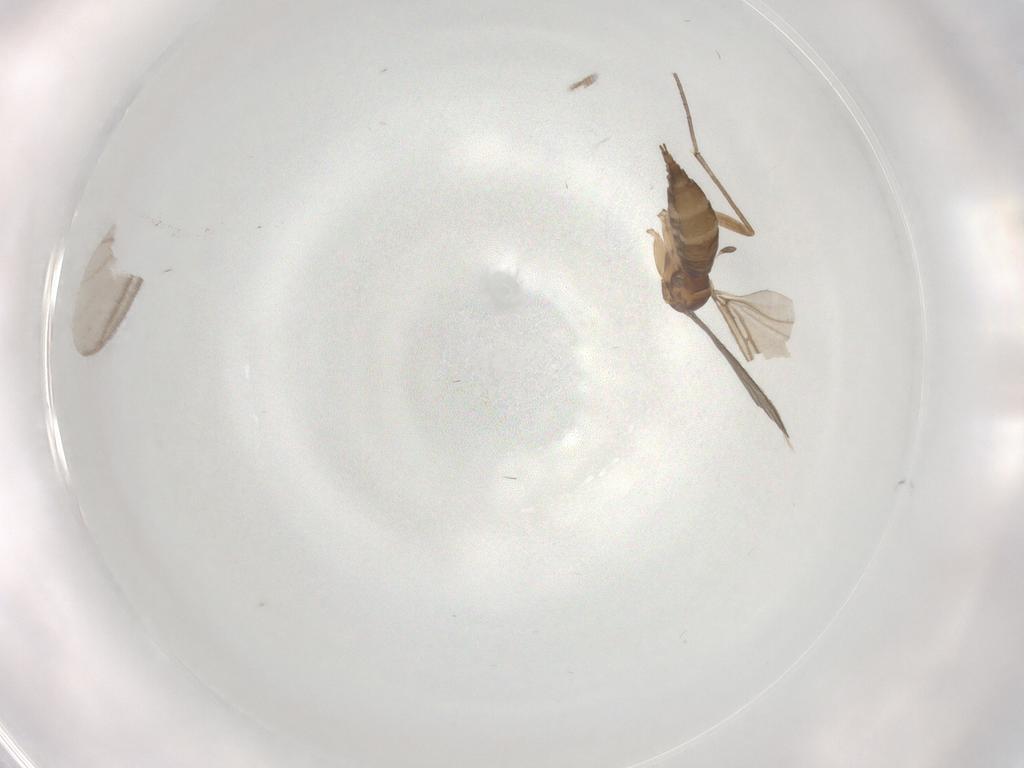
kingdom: Animalia
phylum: Arthropoda
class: Insecta
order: Diptera
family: Sciaridae
